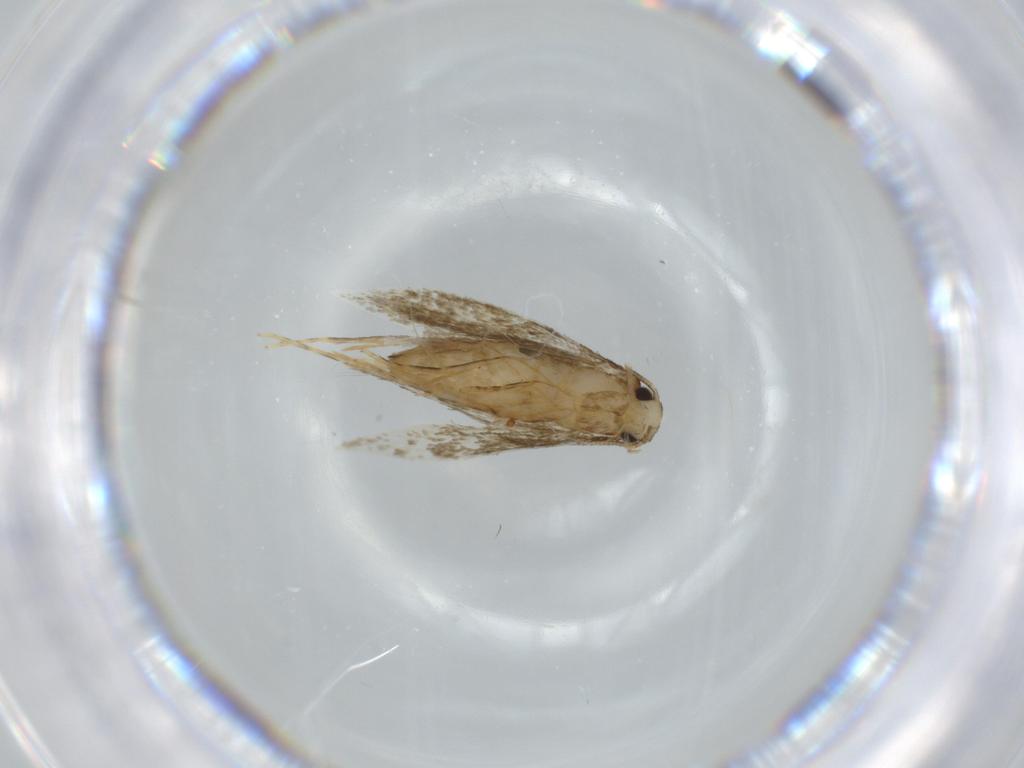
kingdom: Animalia
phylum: Arthropoda
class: Insecta
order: Lepidoptera
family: Tineidae
